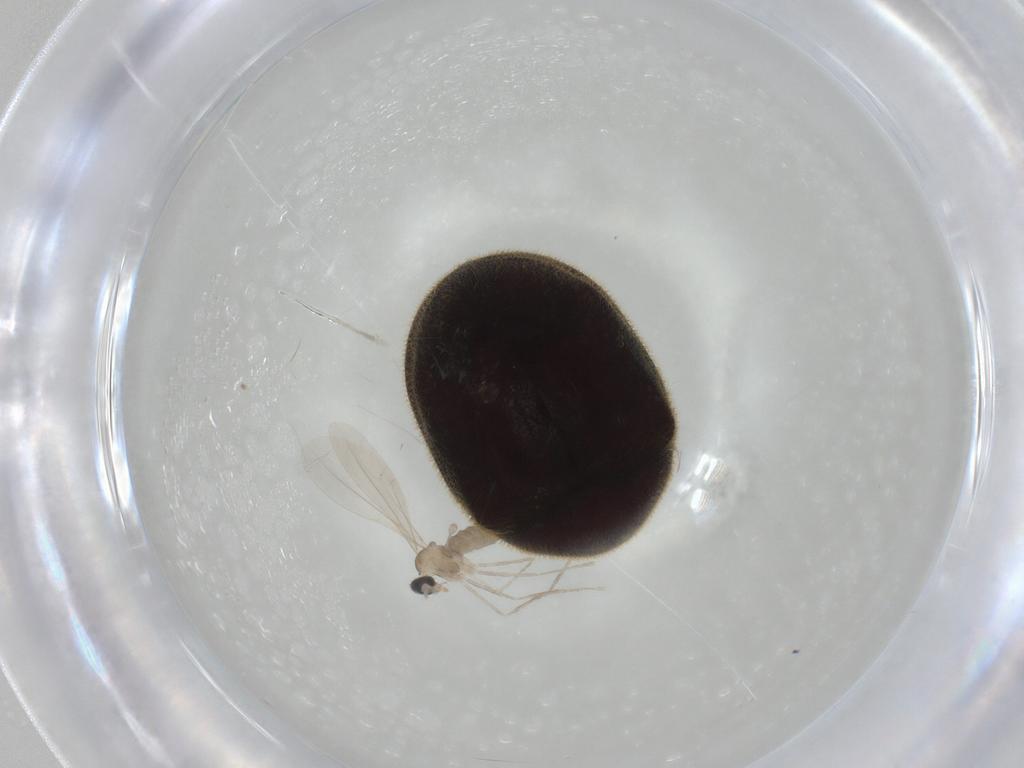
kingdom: Animalia
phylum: Arthropoda
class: Insecta
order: Coleoptera
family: Ptinidae
